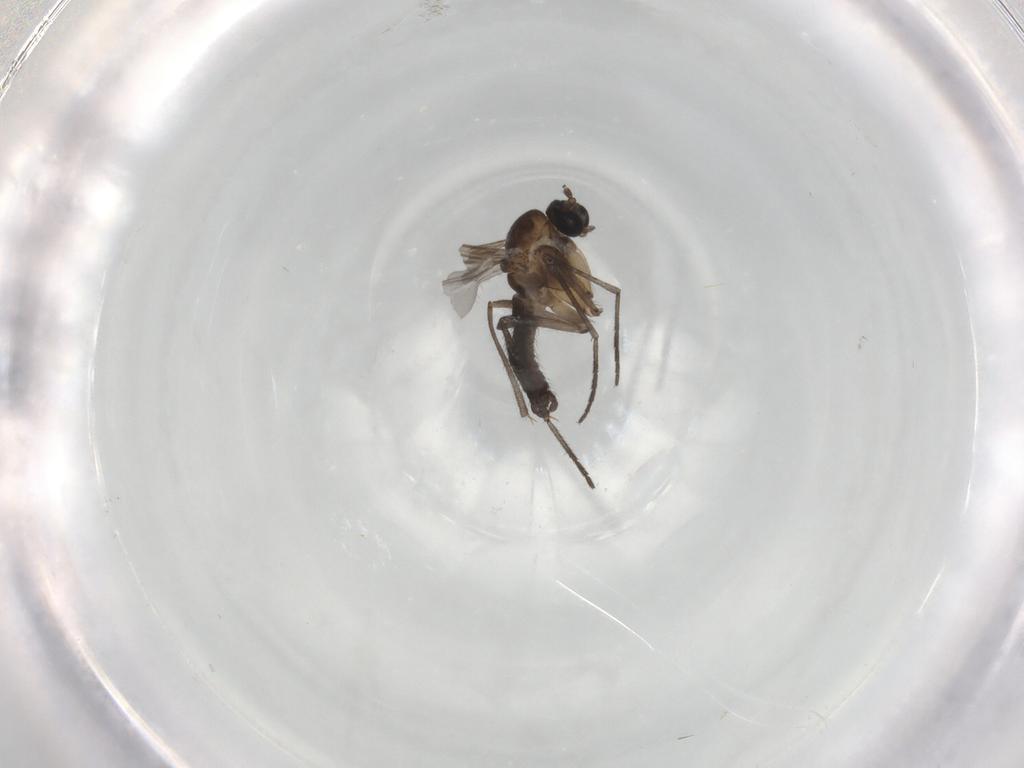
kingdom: Animalia
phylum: Arthropoda
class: Insecta
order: Diptera
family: Sciaridae
